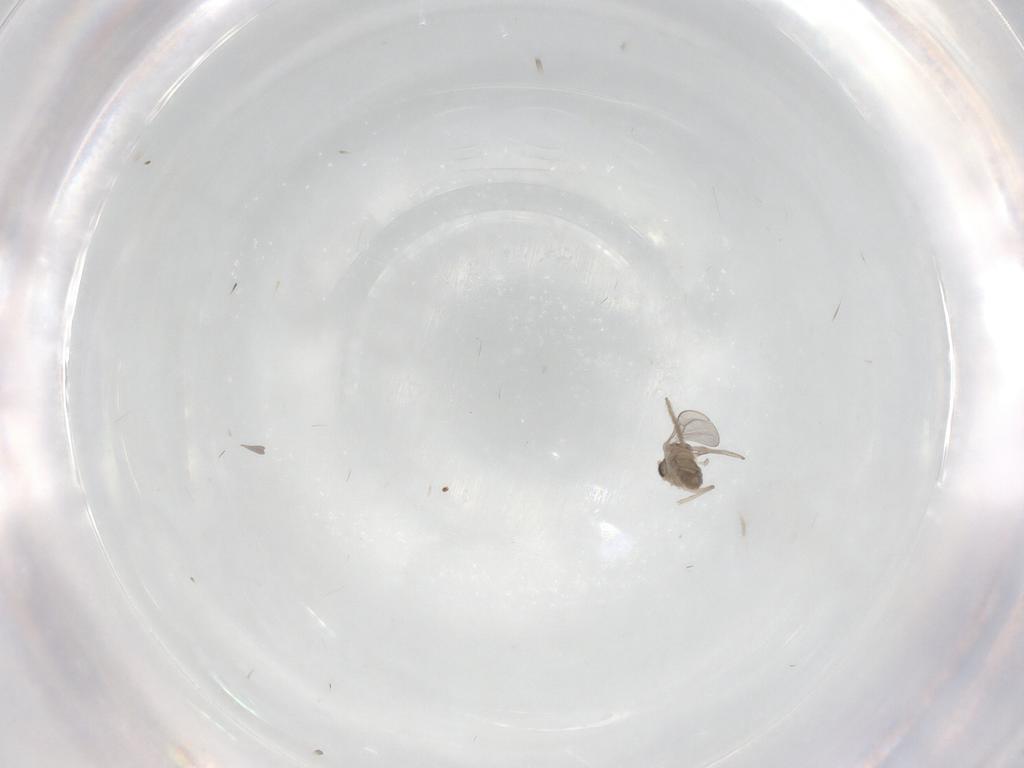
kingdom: Animalia
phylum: Arthropoda
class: Insecta
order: Diptera
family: Cecidomyiidae
